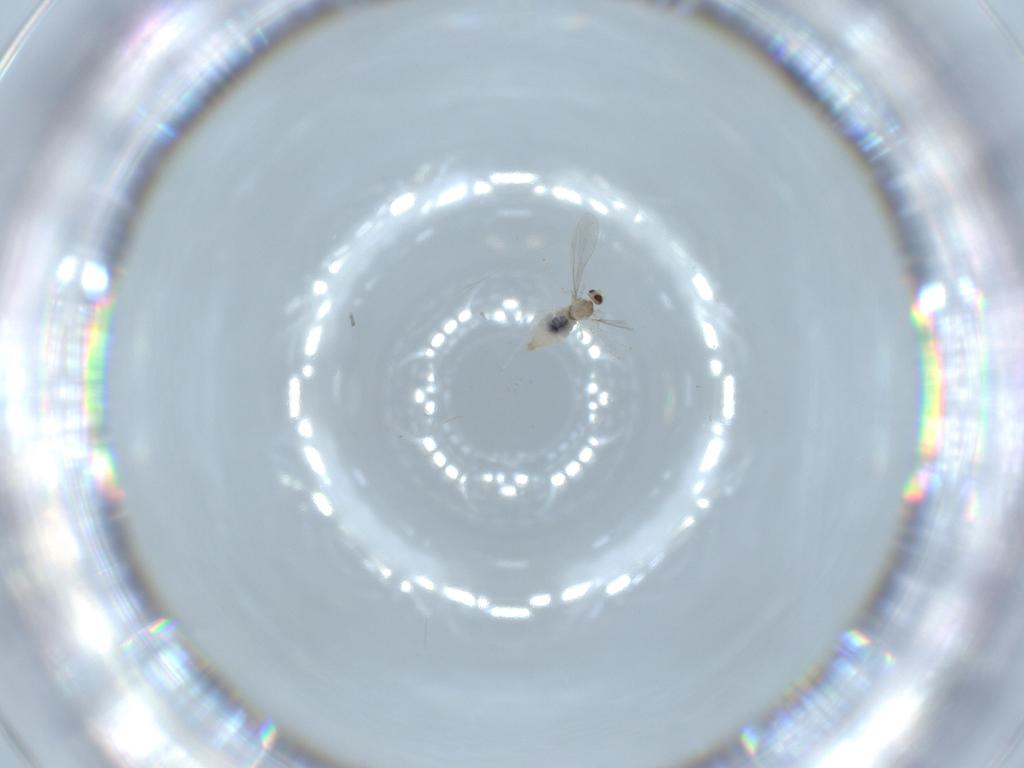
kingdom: Animalia
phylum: Arthropoda
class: Insecta
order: Diptera
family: Cecidomyiidae
